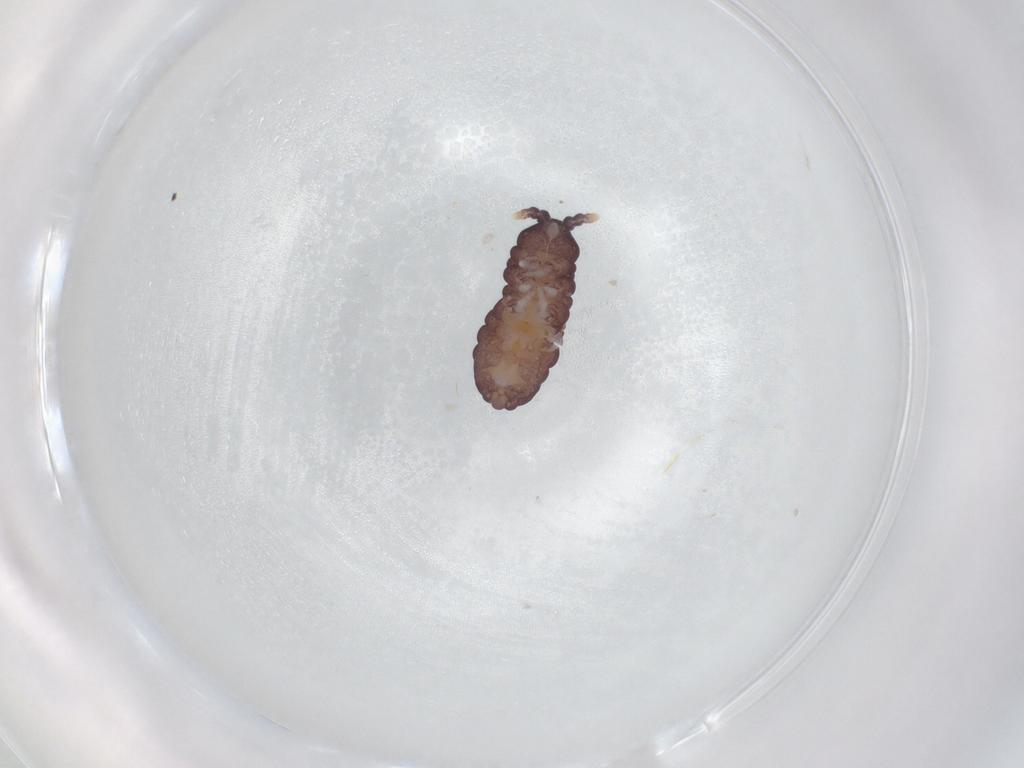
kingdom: Animalia
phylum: Arthropoda
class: Collembola
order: Poduromorpha
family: Neanuridae
